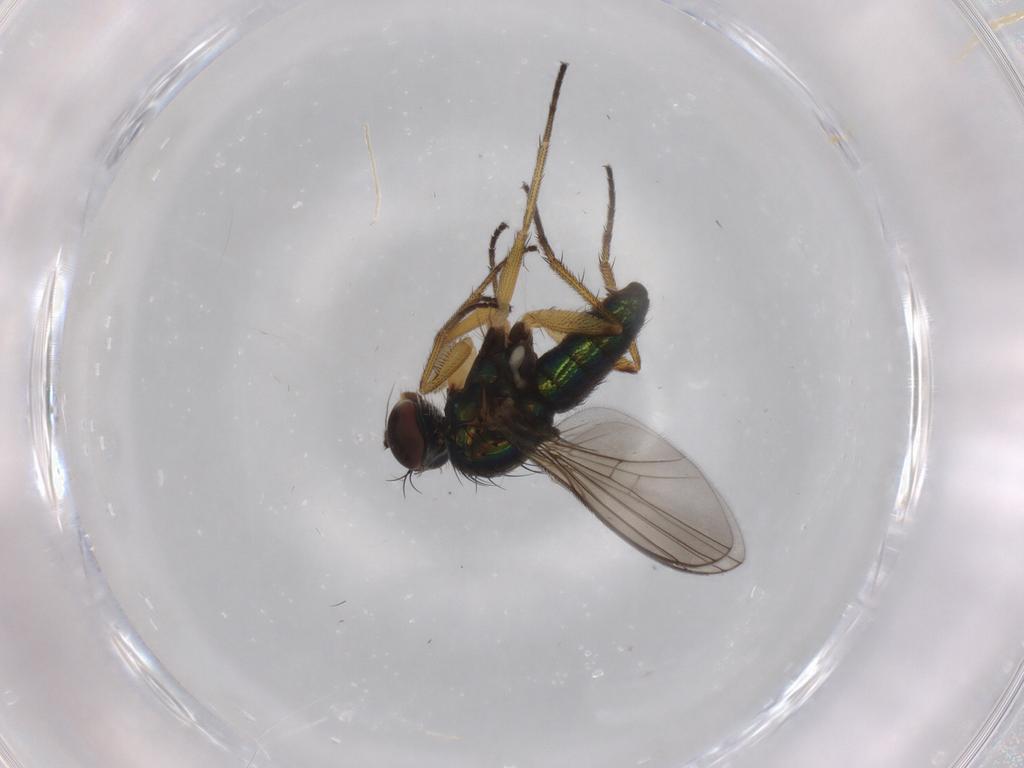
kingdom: Animalia
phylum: Arthropoda
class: Insecta
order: Diptera
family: Dolichopodidae
